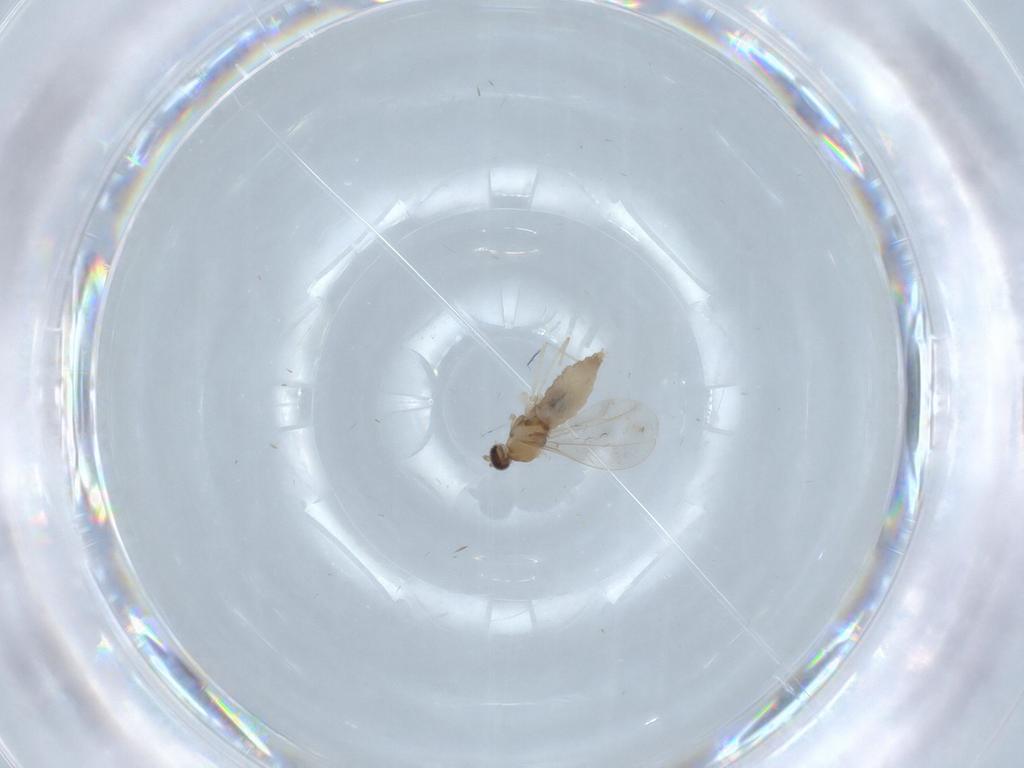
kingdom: Animalia
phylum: Arthropoda
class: Insecta
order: Diptera
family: Cecidomyiidae
